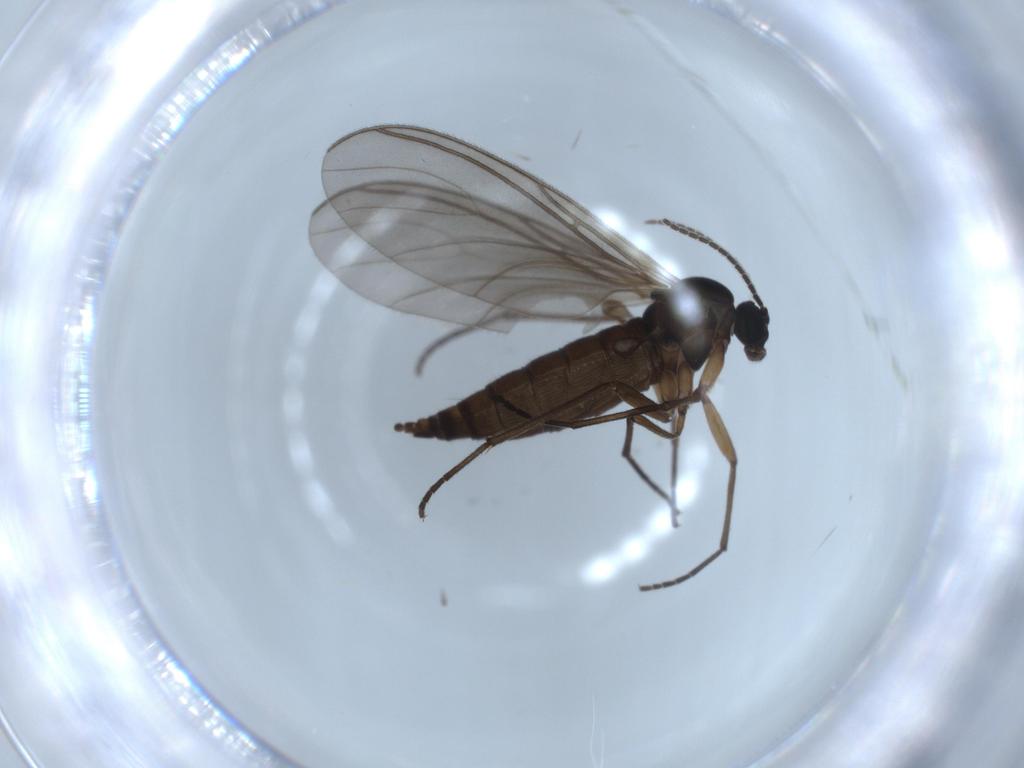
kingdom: Animalia
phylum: Arthropoda
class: Insecta
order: Diptera
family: Sciaridae
